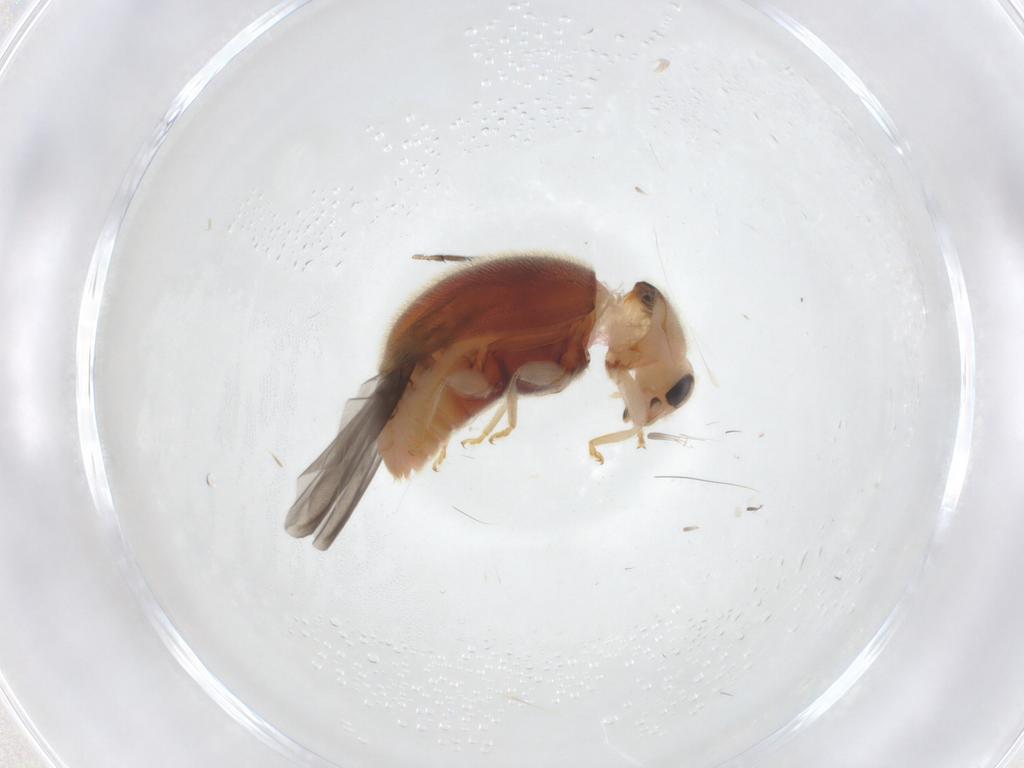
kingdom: Animalia
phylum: Arthropoda
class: Insecta
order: Coleoptera
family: Coccinellidae
